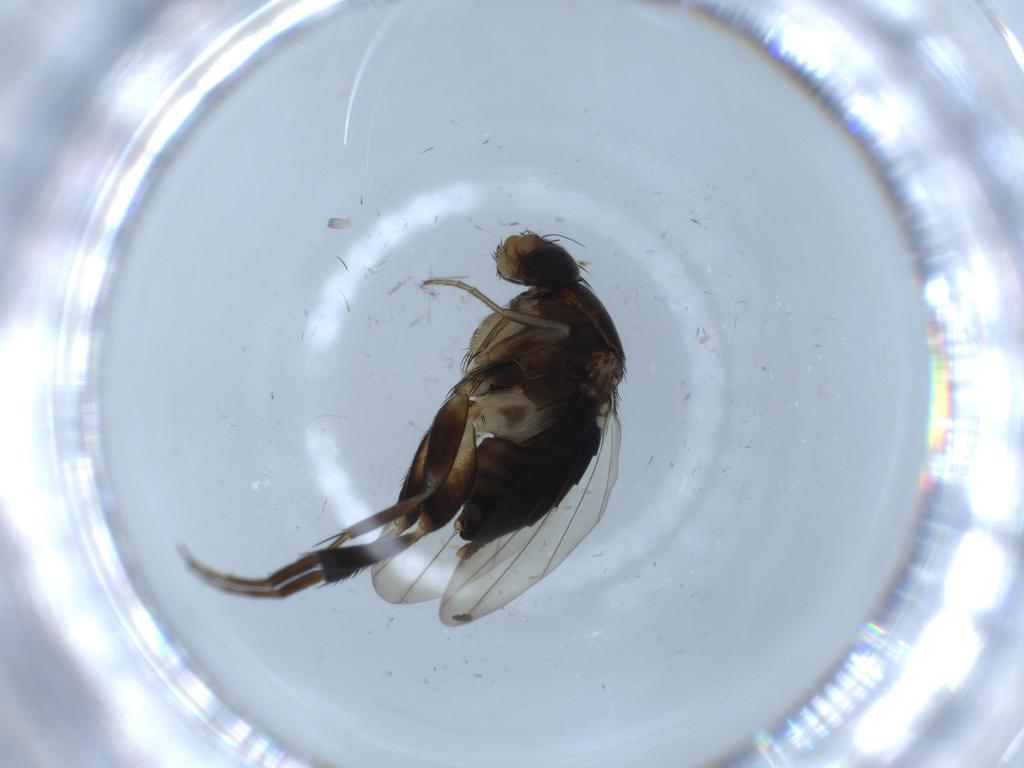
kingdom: Animalia
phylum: Arthropoda
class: Insecta
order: Diptera
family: Phoridae
